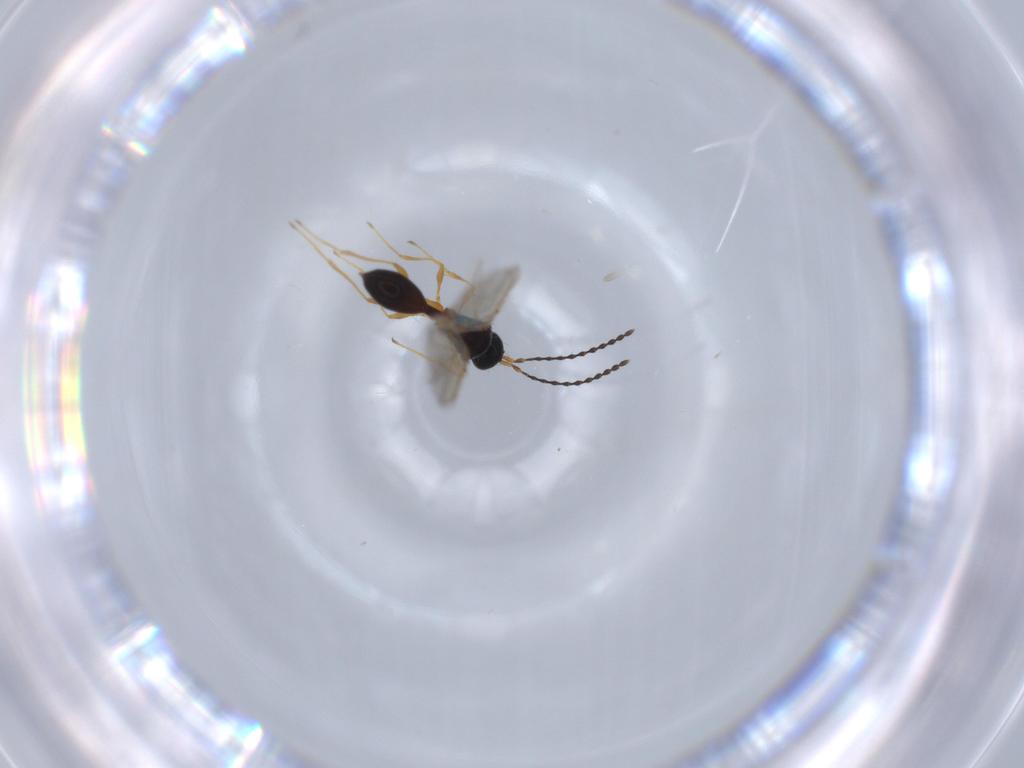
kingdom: Animalia
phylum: Arthropoda
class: Insecta
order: Hymenoptera
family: Diapriidae
